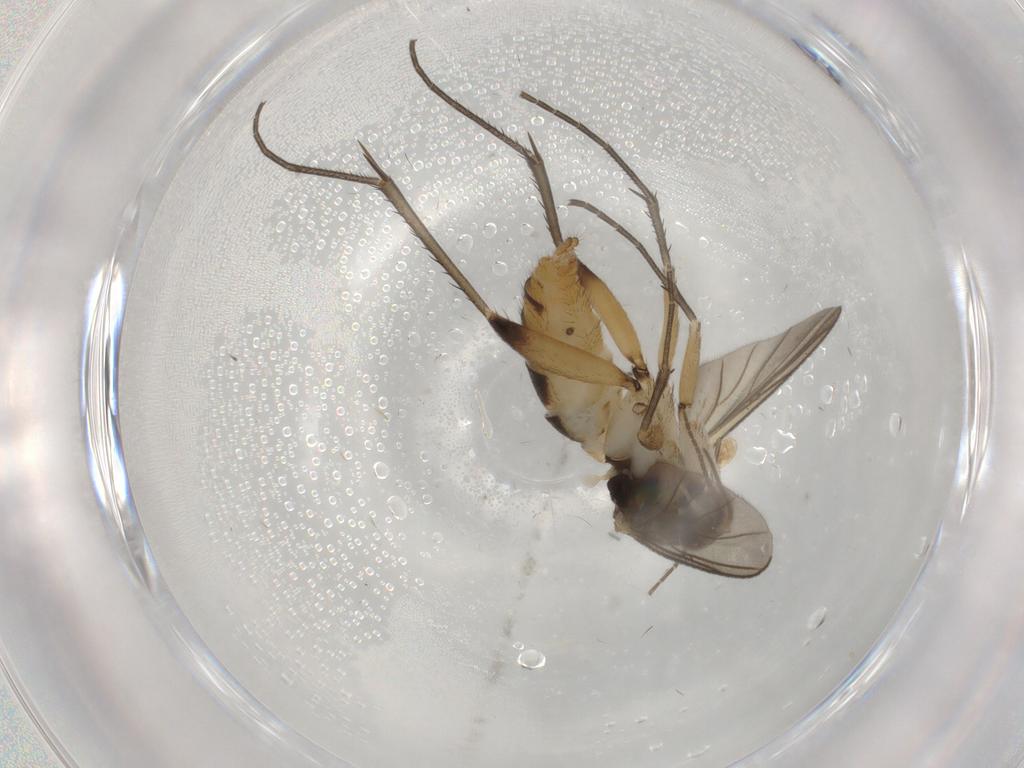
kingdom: Animalia
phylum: Arthropoda
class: Insecta
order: Diptera
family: Mycetophilidae
